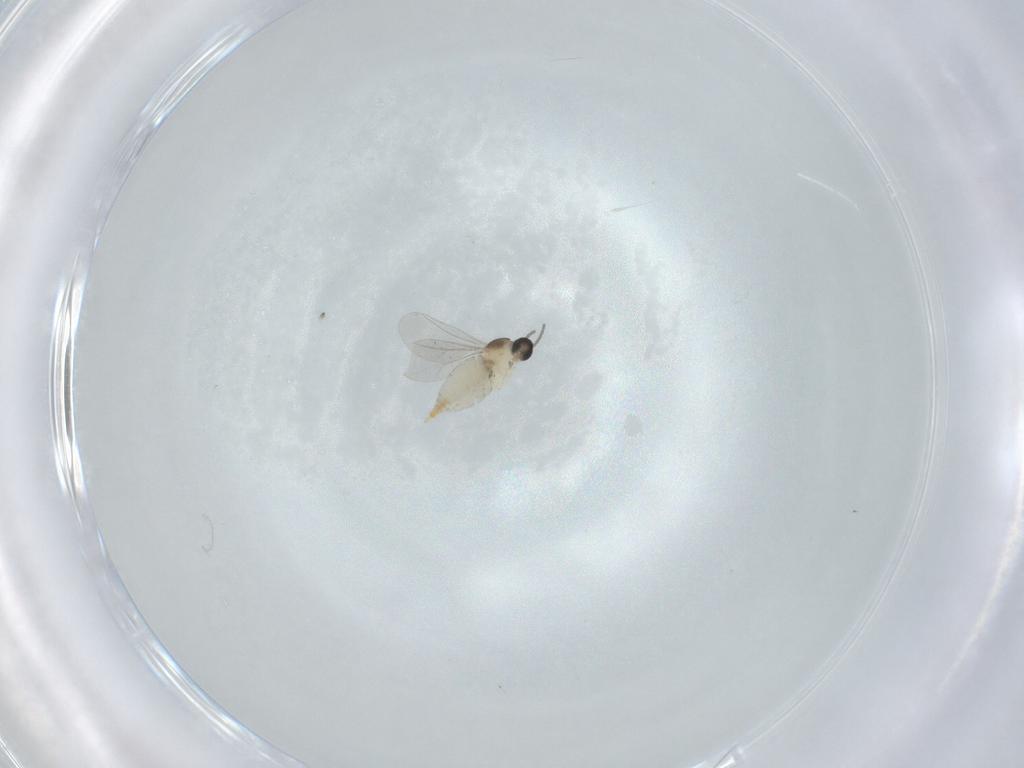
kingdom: Animalia
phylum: Arthropoda
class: Insecta
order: Diptera
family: Cecidomyiidae
